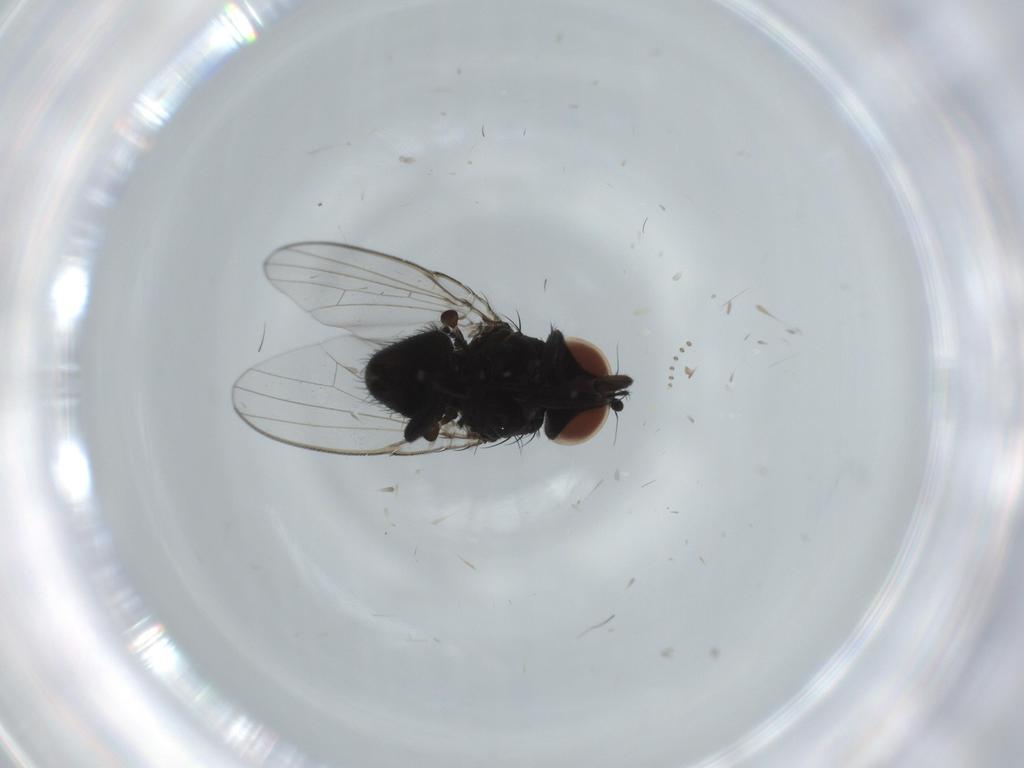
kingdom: Animalia
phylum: Arthropoda
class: Insecta
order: Diptera
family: Milichiidae
